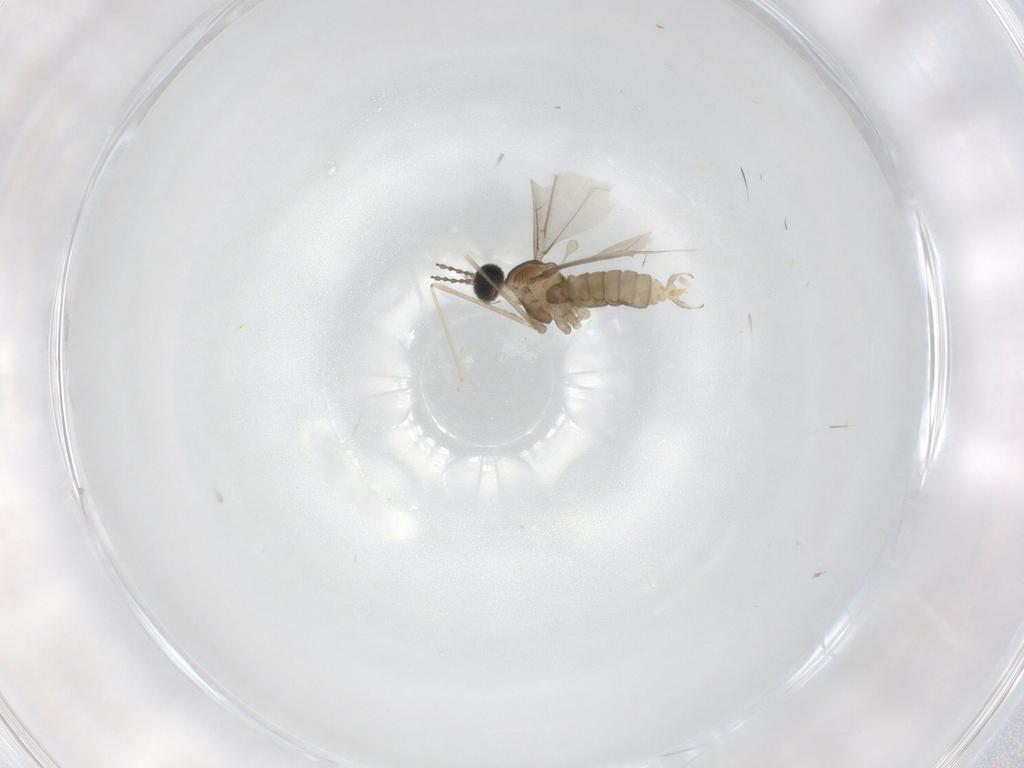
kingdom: Animalia
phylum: Arthropoda
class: Insecta
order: Diptera
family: Cecidomyiidae
